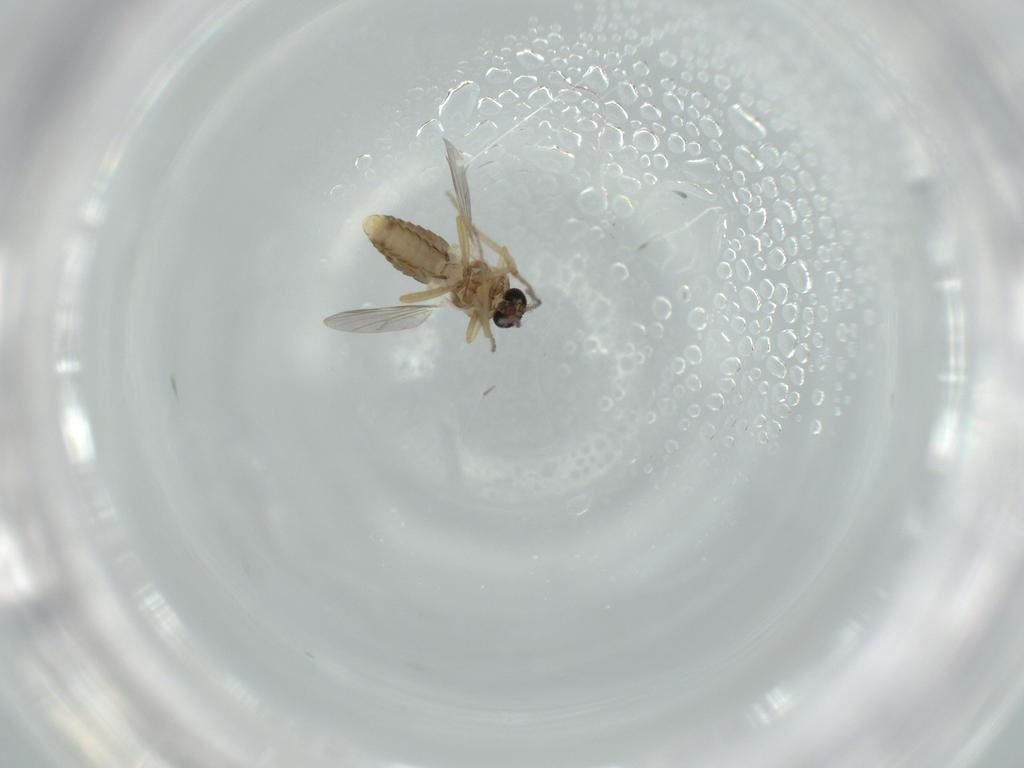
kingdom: Animalia
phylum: Arthropoda
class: Insecta
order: Diptera
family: Ceratopogonidae
